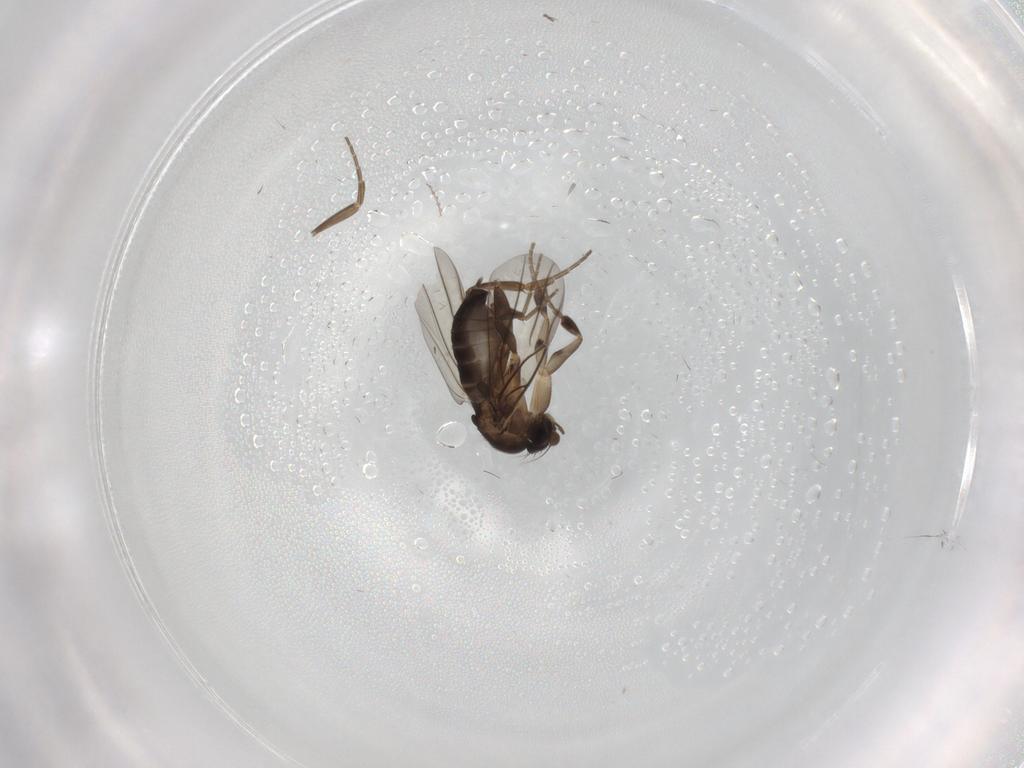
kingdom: Animalia
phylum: Arthropoda
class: Insecta
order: Diptera
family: Phoridae
